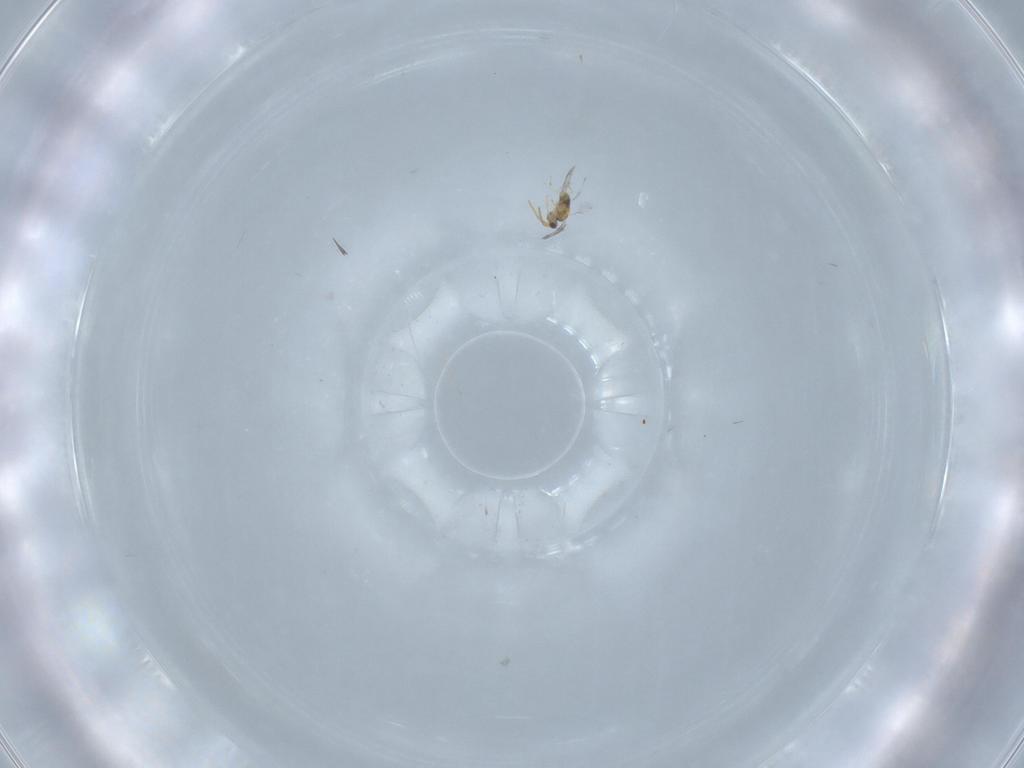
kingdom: Animalia
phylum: Arthropoda
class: Insecta
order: Hymenoptera
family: Aphelinidae
